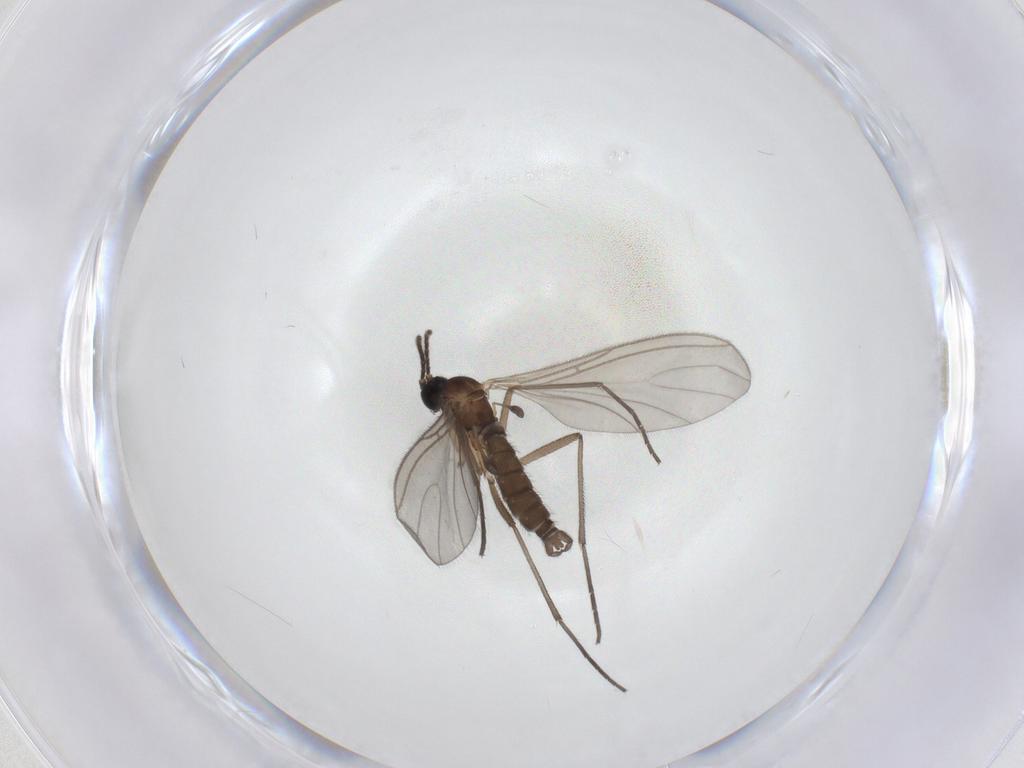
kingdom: Animalia
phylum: Arthropoda
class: Insecta
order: Diptera
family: Sciaridae
